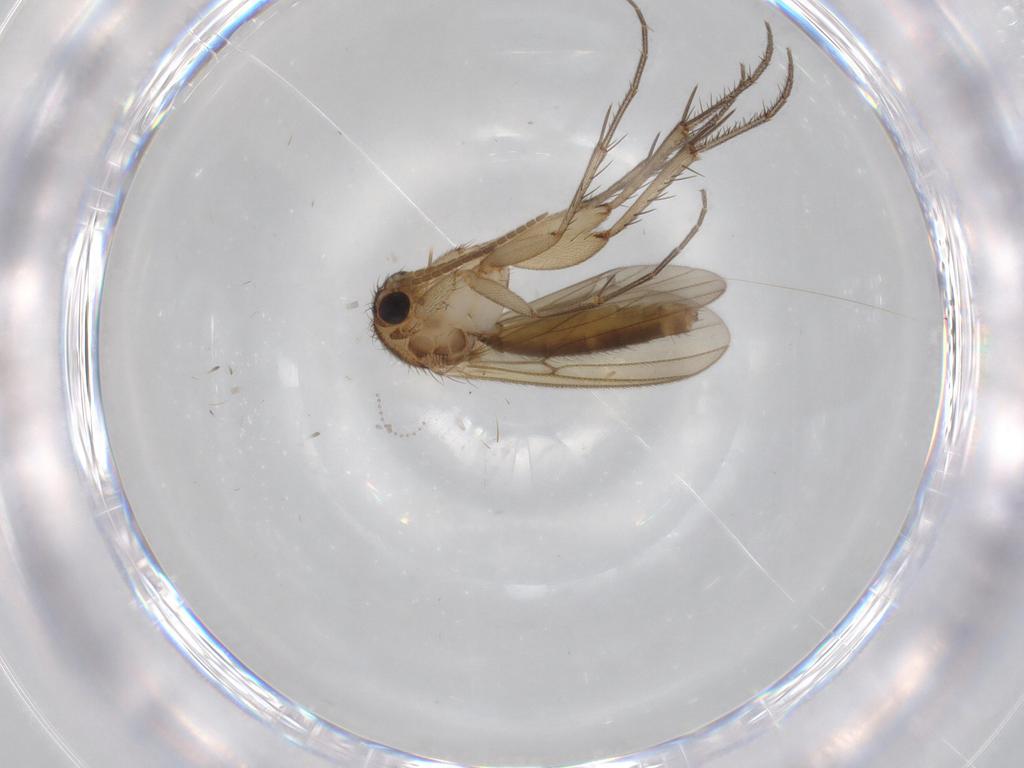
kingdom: Animalia
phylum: Arthropoda
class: Insecta
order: Diptera
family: Mycetophilidae
